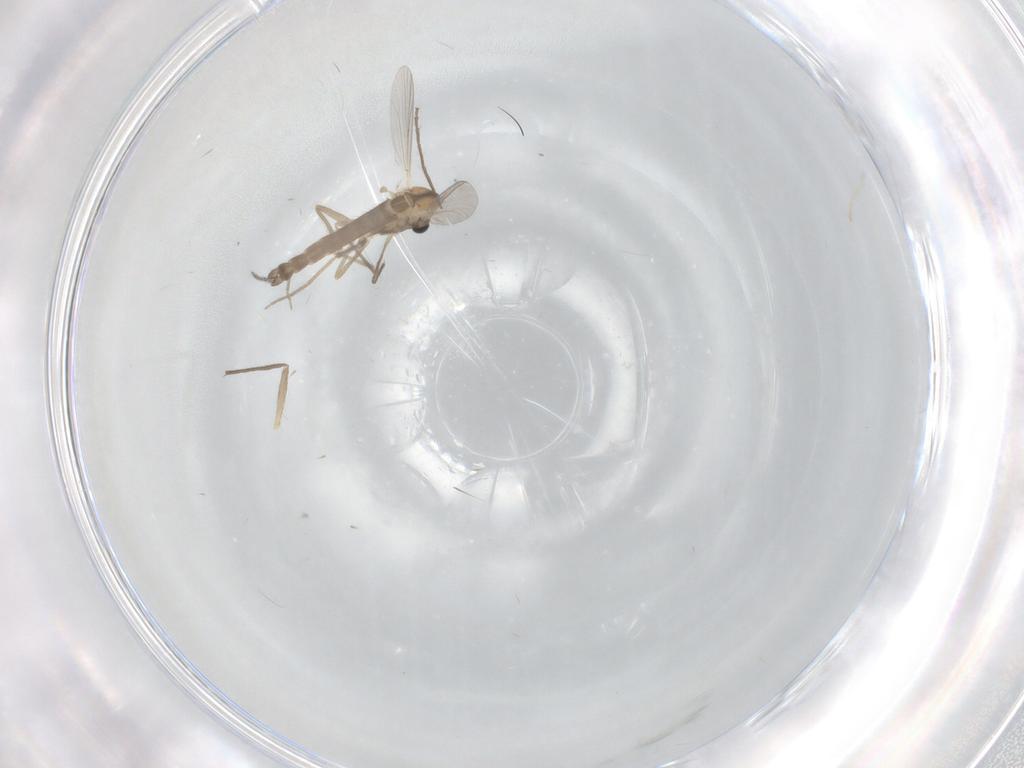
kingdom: Animalia
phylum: Arthropoda
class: Insecta
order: Diptera
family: Chironomidae
